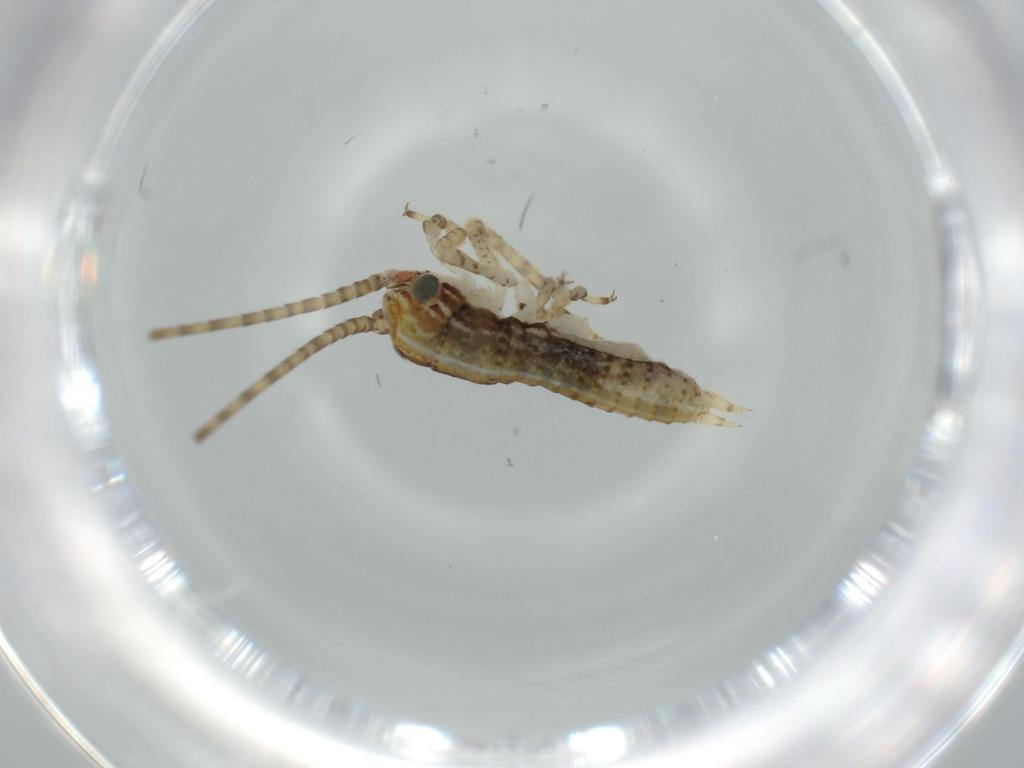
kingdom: Animalia
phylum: Arthropoda
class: Insecta
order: Orthoptera
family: Gryllidae
